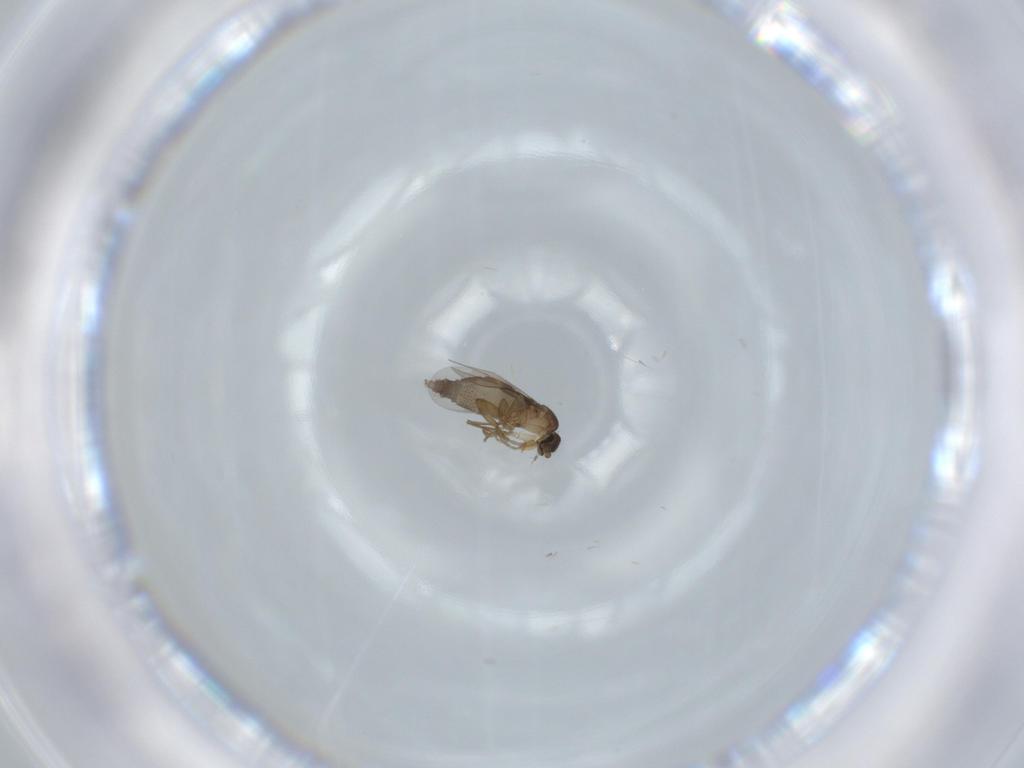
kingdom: Animalia
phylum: Arthropoda
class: Insecta
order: Diptera
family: Phoridae
